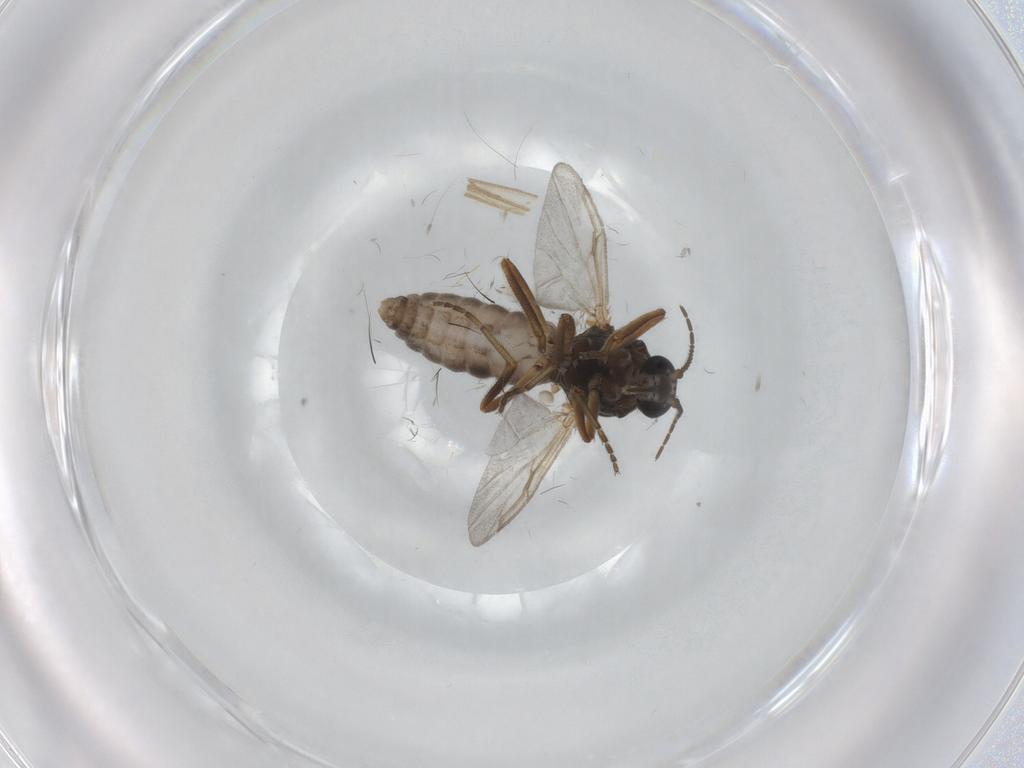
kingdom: Animalia
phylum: Arthropoda
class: Insecta
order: Diptera
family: Ceratopogonidae
